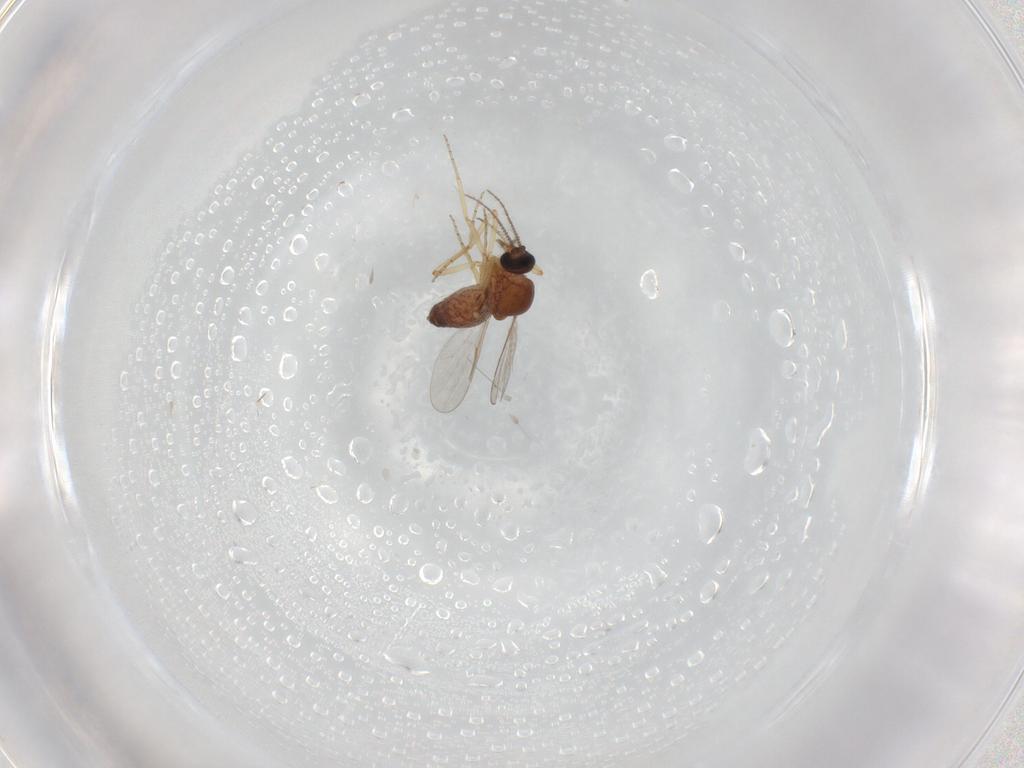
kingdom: Animalia
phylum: Arthropoda
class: Insecta
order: Diptera
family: Ceratopogonidae
